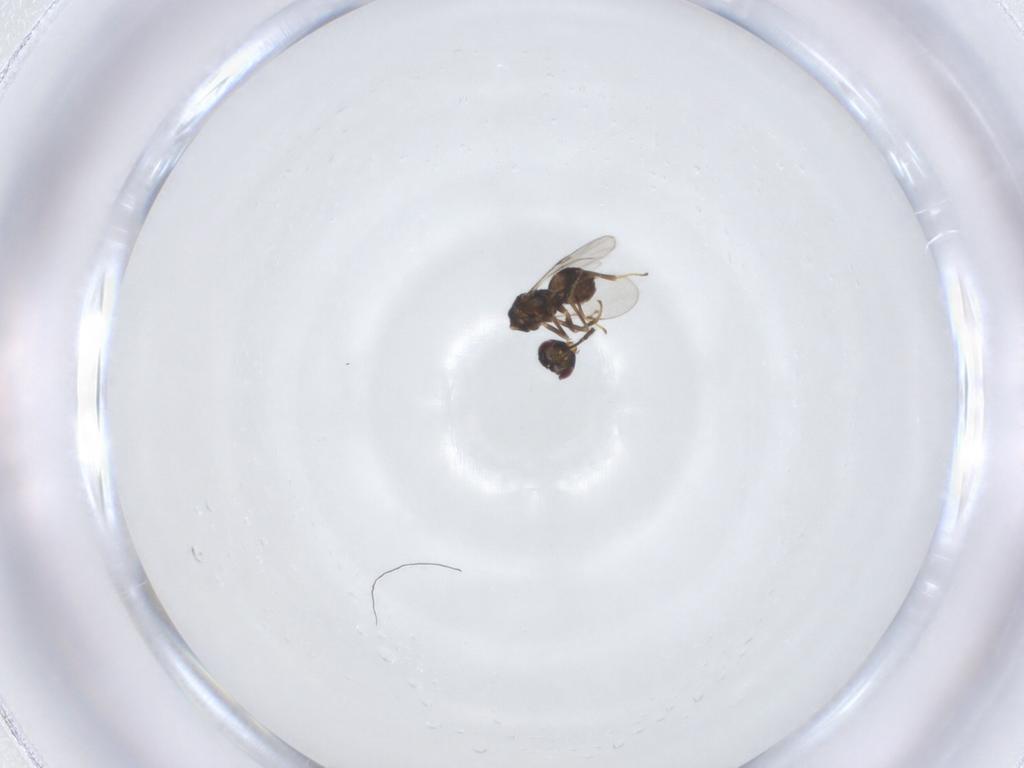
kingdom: Animalia
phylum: Arthropoda
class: Insecta
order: Hymenoptera
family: Encyrtidae
